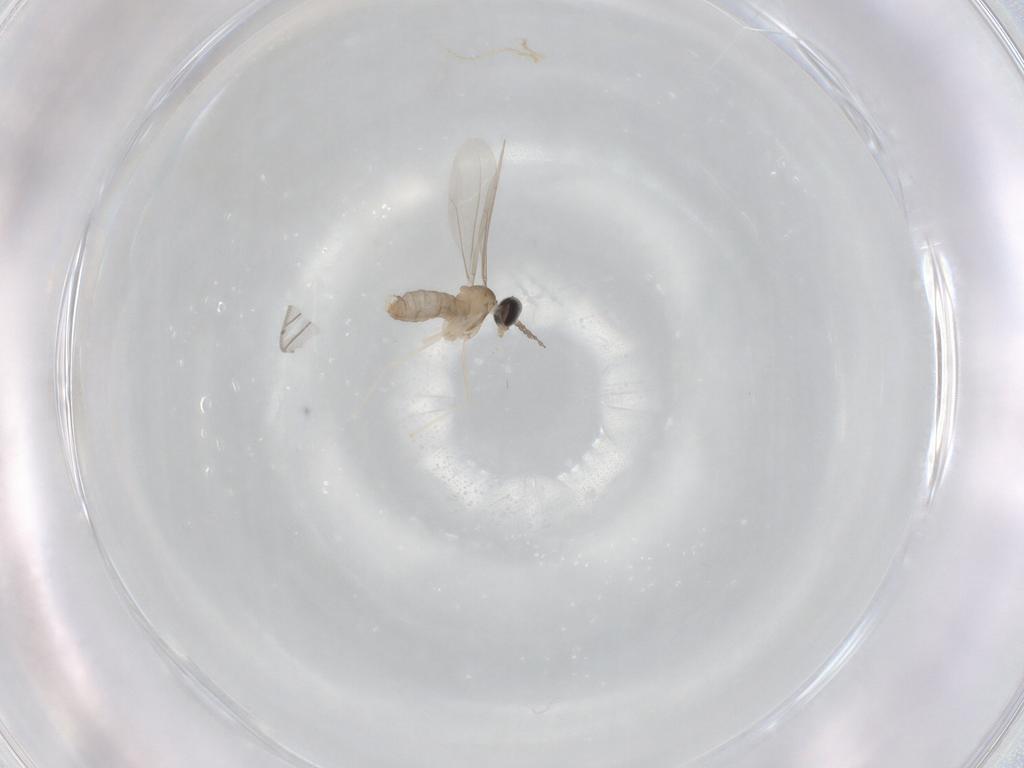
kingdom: Animalia
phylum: Arthropoda
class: Insecta
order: Diptera
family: Cecidomyiidae
